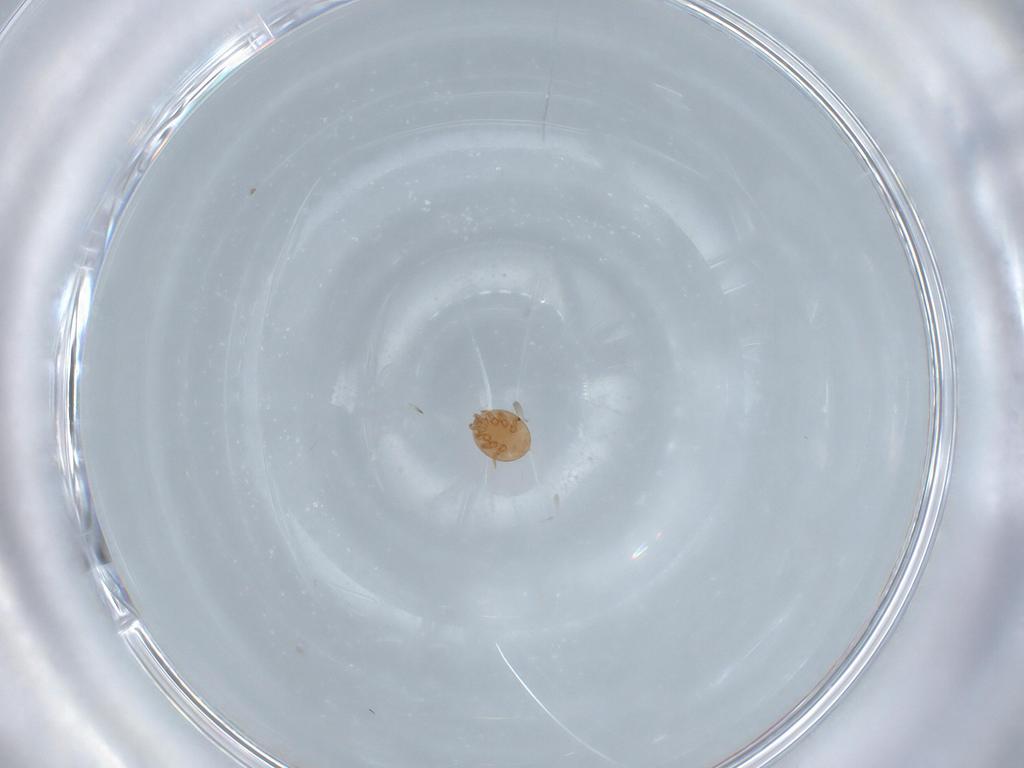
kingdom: Animalia
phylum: Arthropoda
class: Arachnida
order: Mesostigmata
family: Trematuridae
